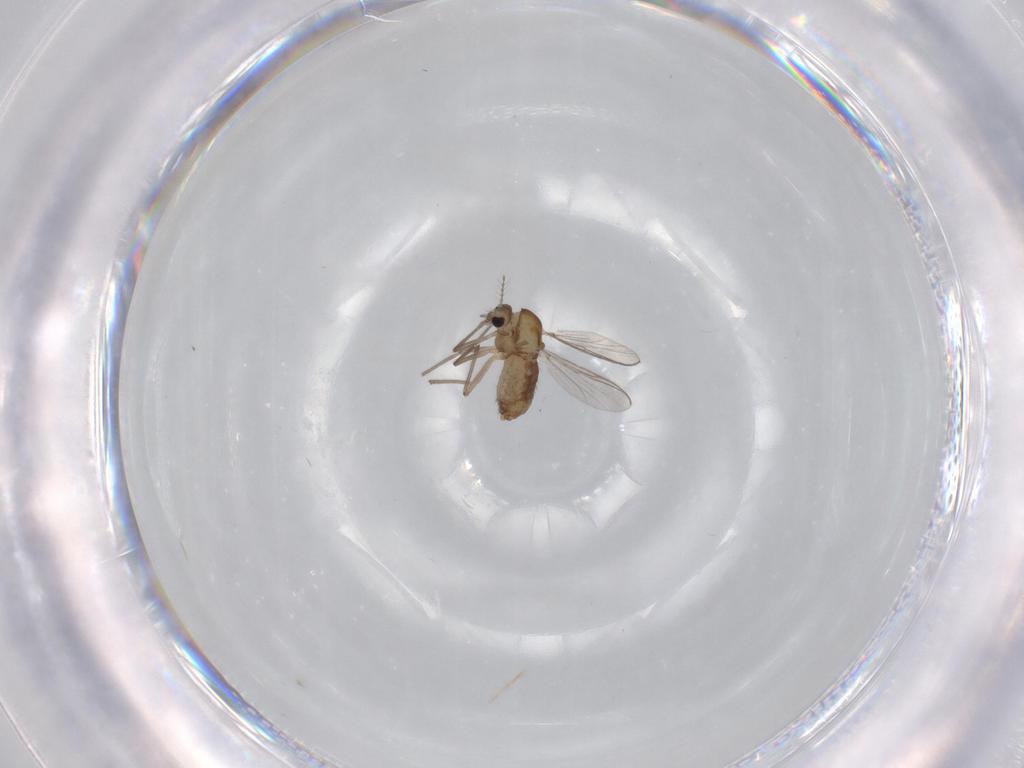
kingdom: Animalia
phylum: Arthropoda
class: Insecta
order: Diptera
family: Chironomidae
